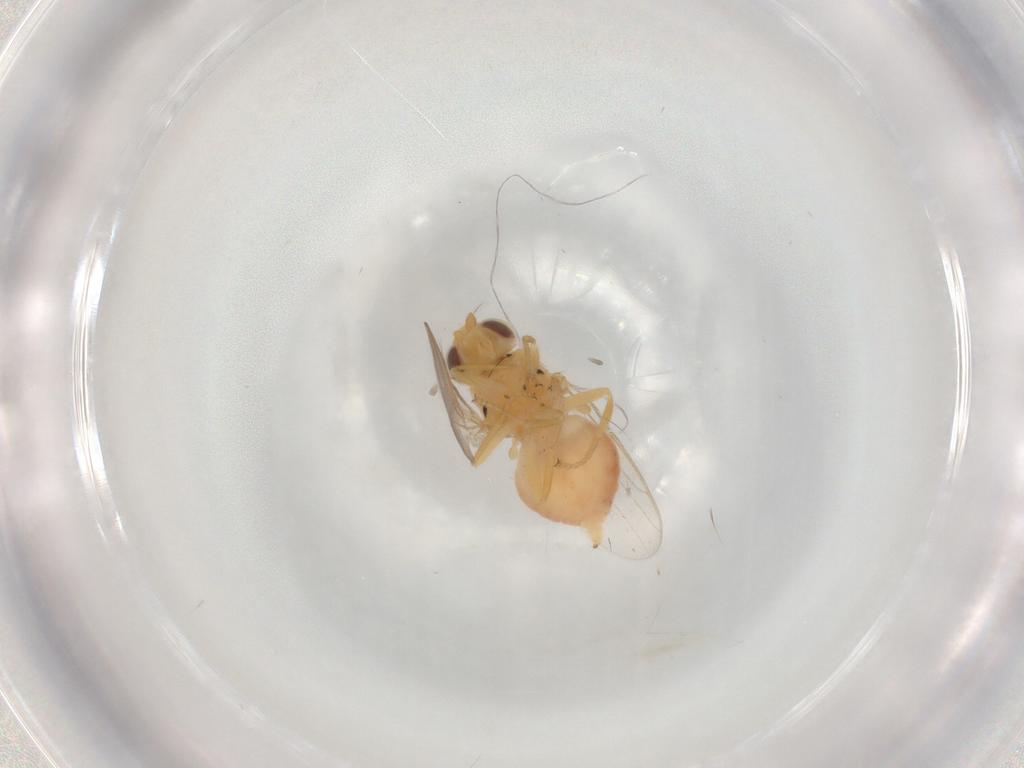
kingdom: Animalia
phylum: Arthropoda
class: Insecta
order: Diptera
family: Chloropidae
